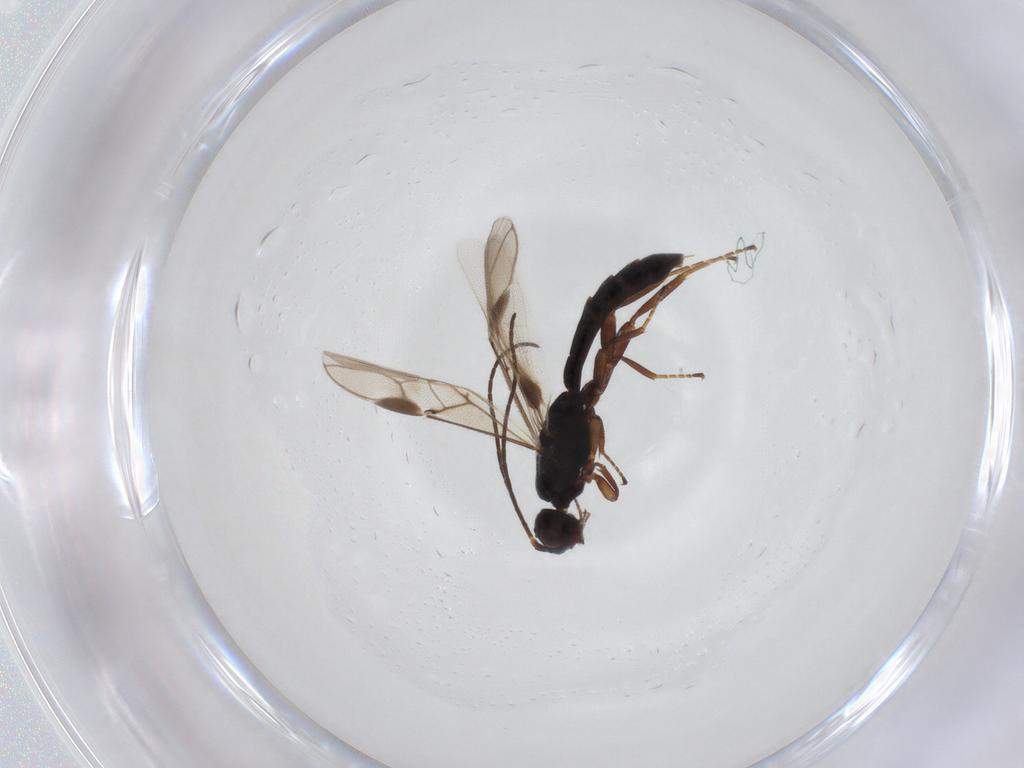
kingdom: Animalia
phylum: Arthropoda
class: Insecta
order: Hymenoptera
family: Braconidae
